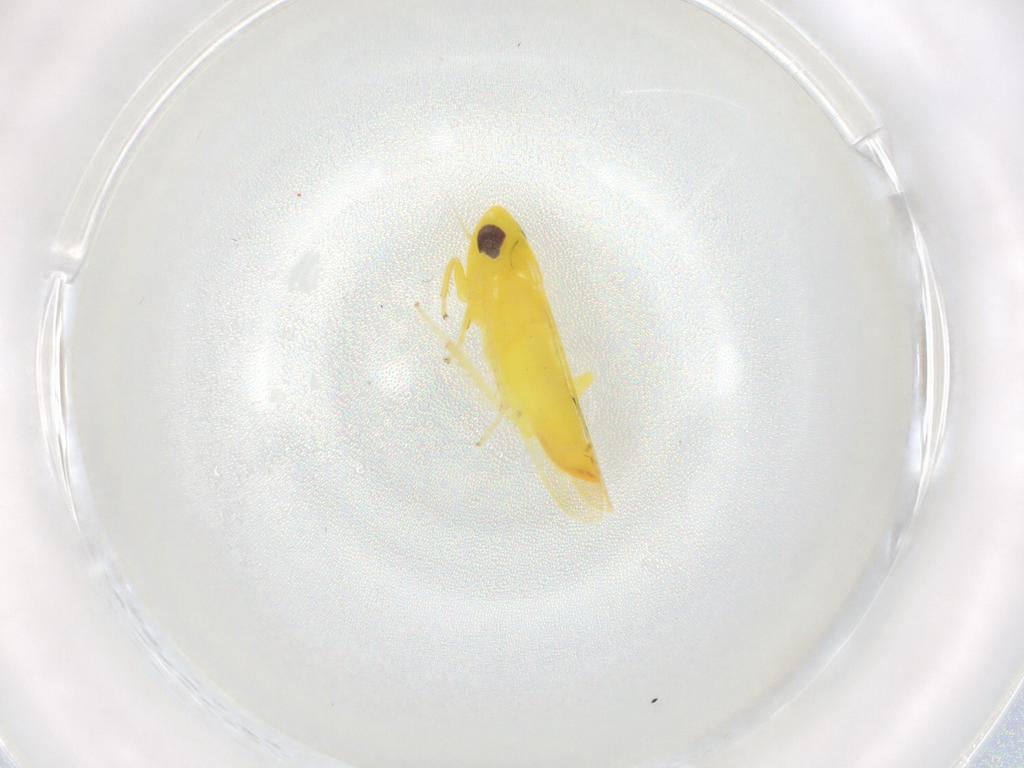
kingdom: Animalia
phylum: Arthropoda
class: Insecta
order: Hemiptera
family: Cicadellidae
